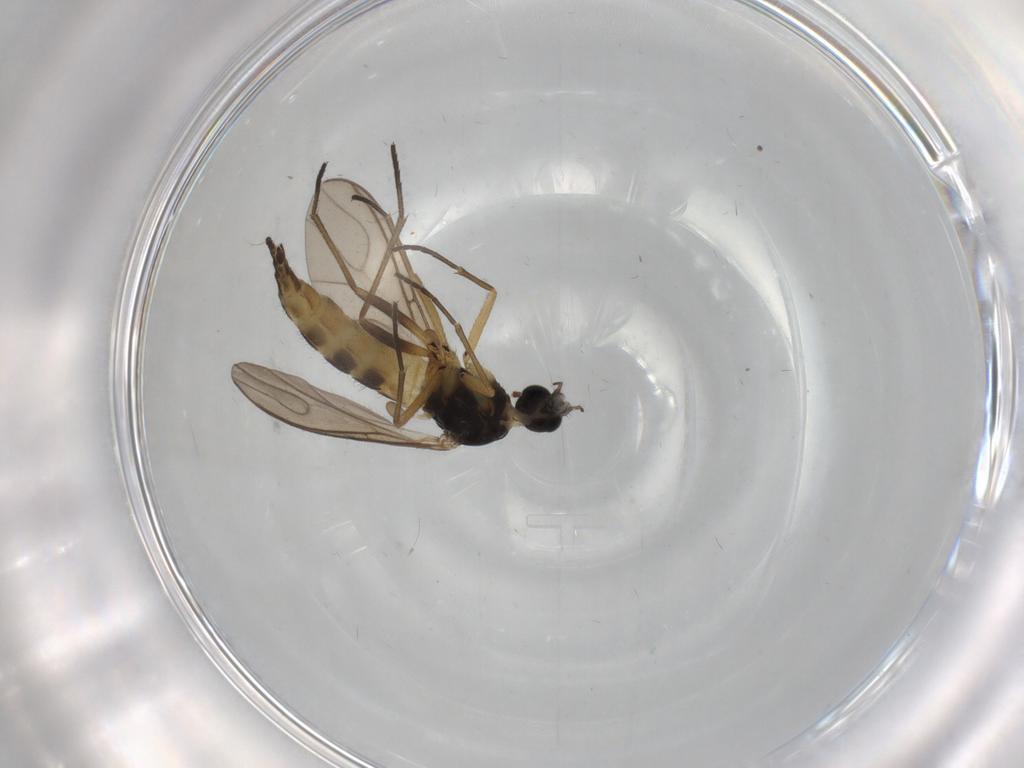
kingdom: Animalia
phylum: Arthropoda
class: Insecta
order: Diptera
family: Sciaridae
